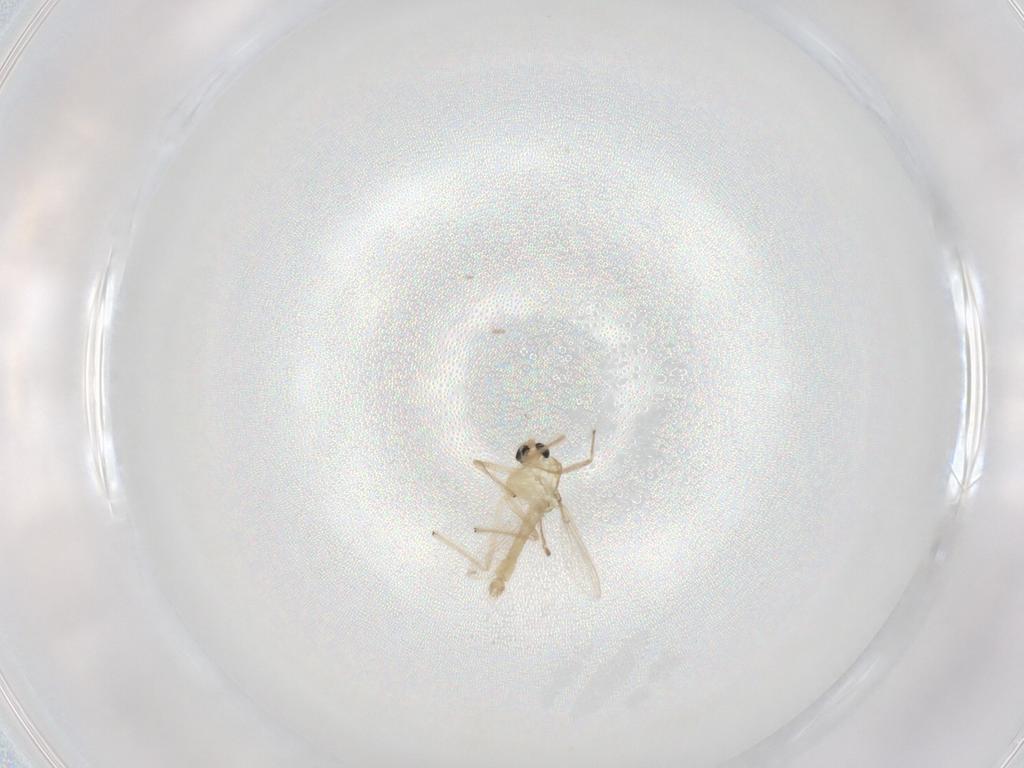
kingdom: Animalia
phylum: Arthropoda
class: Insecta
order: Diptera
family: Chironomidae
